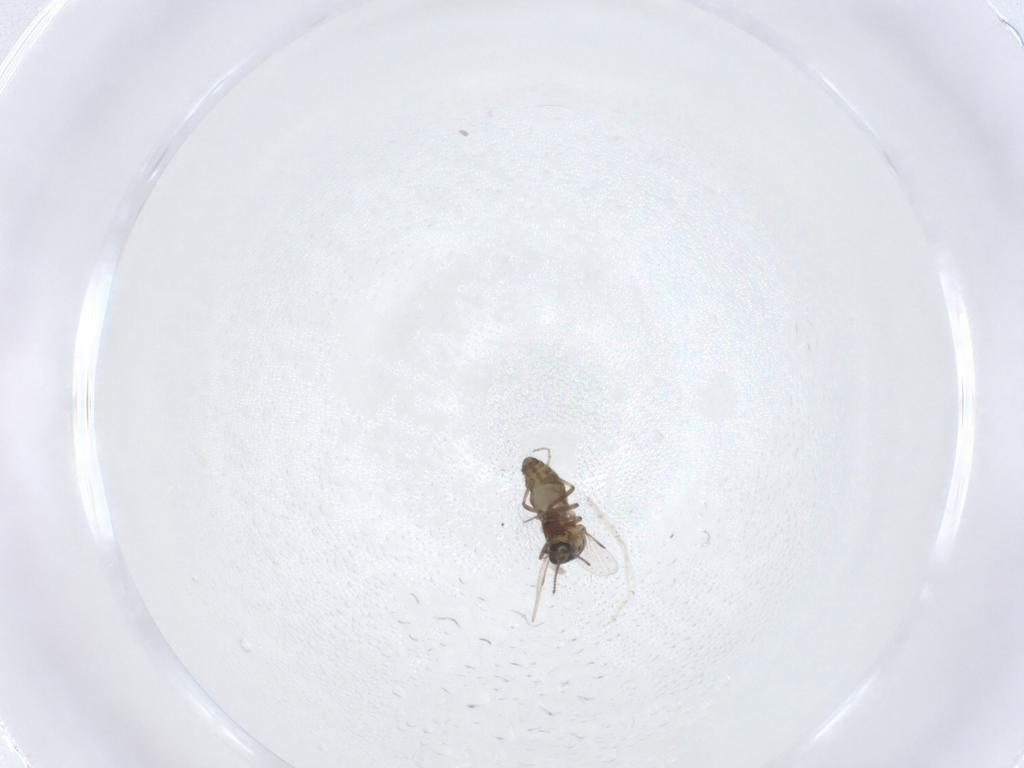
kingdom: Animalia
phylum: Arthropoda
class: Insecta
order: Diptera
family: Ceratopogonidae
